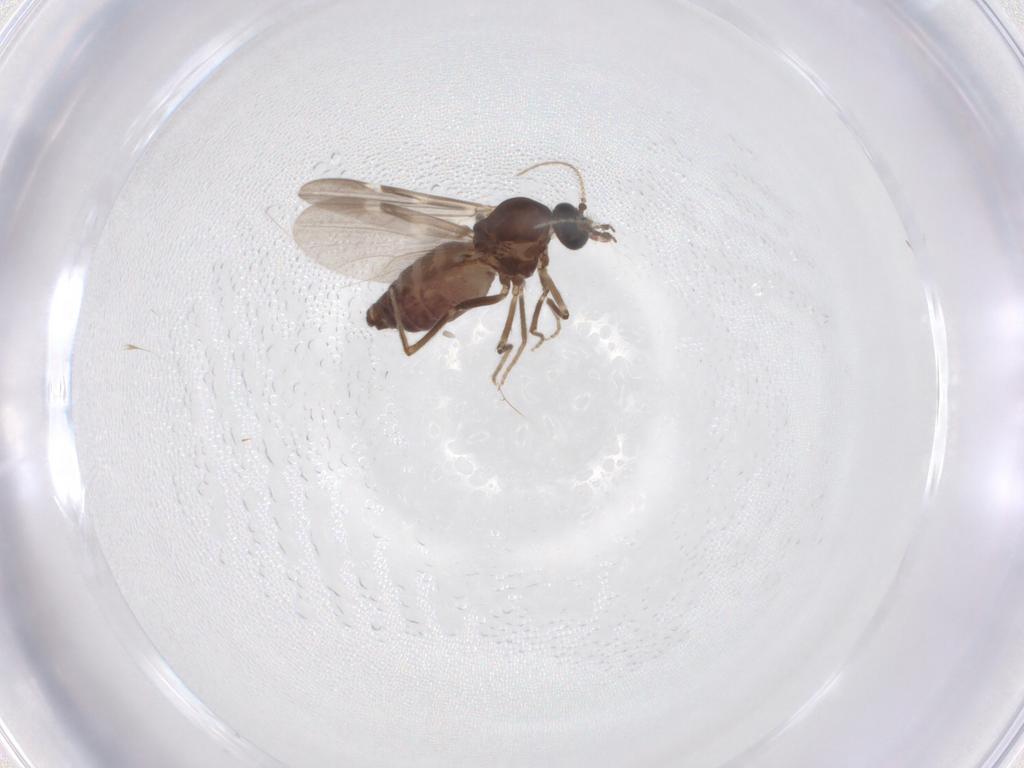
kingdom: Animalia
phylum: Arthropoda
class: Insecta
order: Diptera
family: Ceratopogonidae
